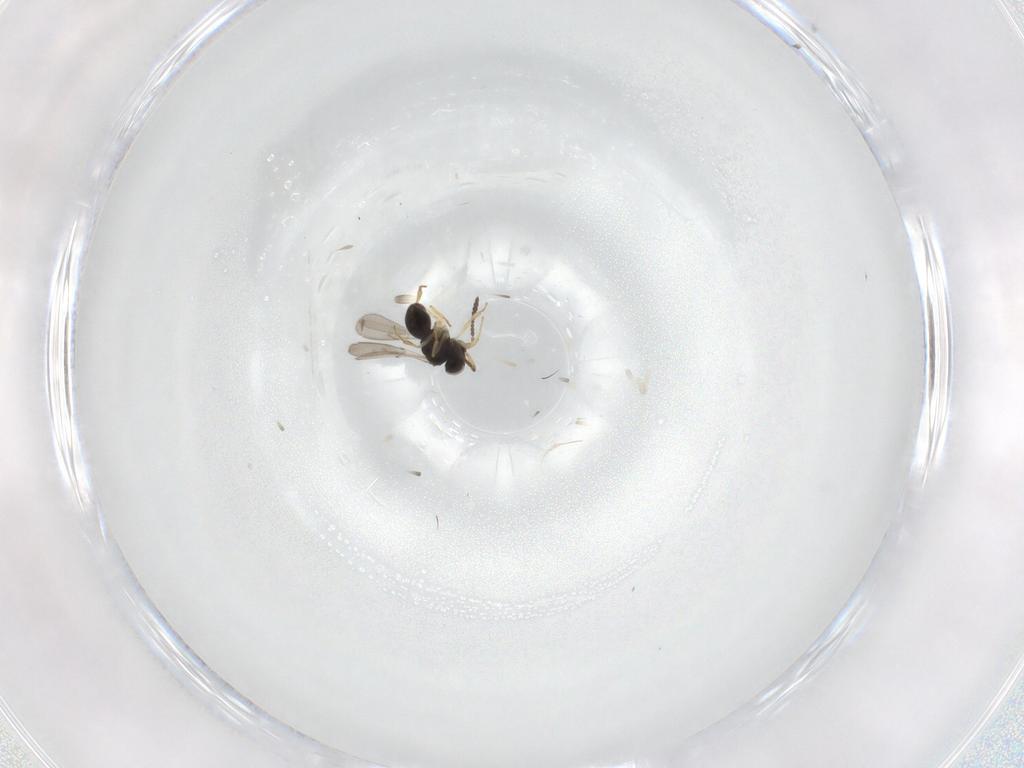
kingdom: Animalia
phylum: Arthropoda
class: Insecta
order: Hymenoptera
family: Scelionidae
